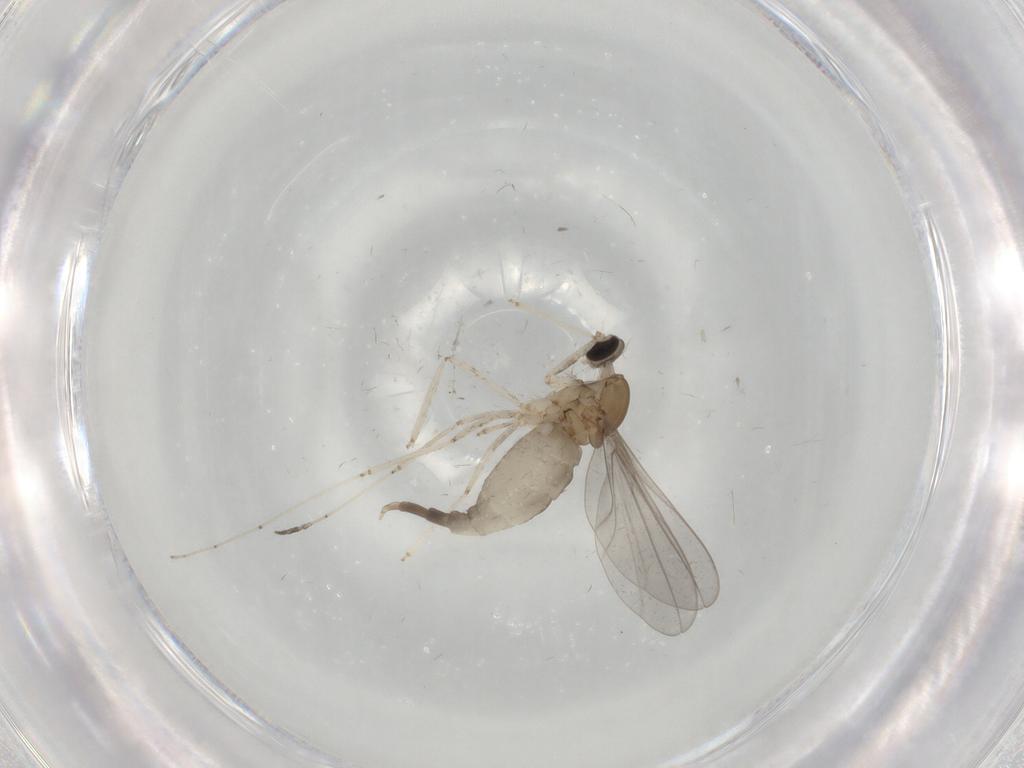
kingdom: Animalia
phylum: Arthropoda
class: Insecta
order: Diptera
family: Cecidomyiidae
